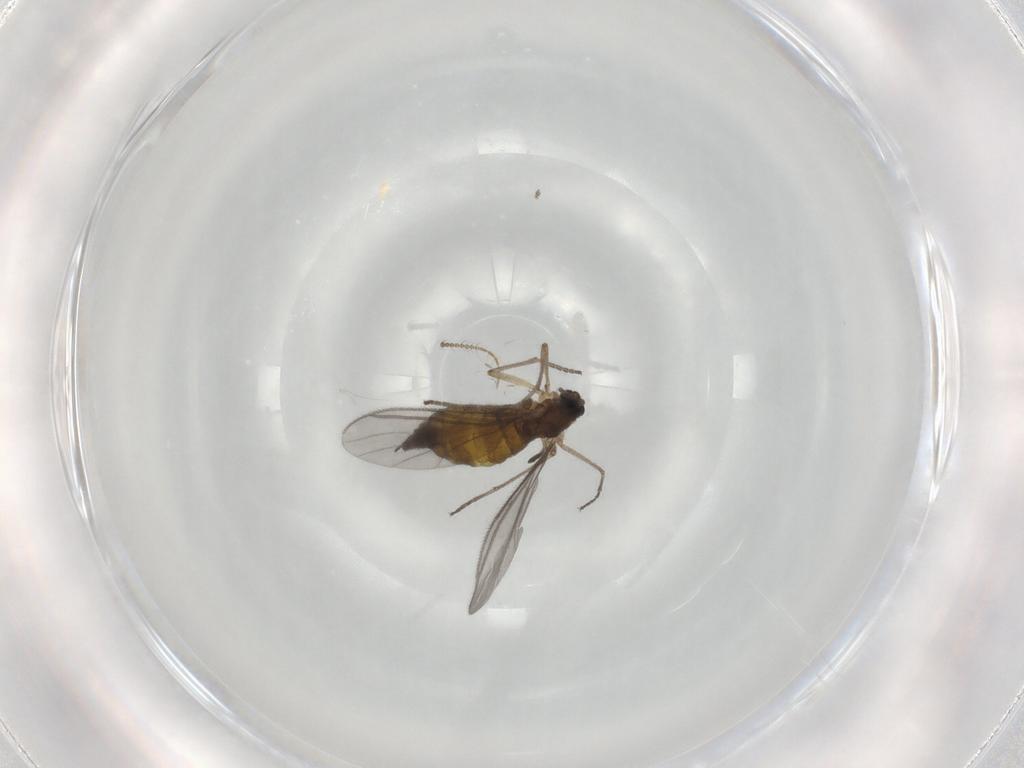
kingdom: Animalia
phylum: Arthropoda
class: Insecta
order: Diptera
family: Sciaridae
